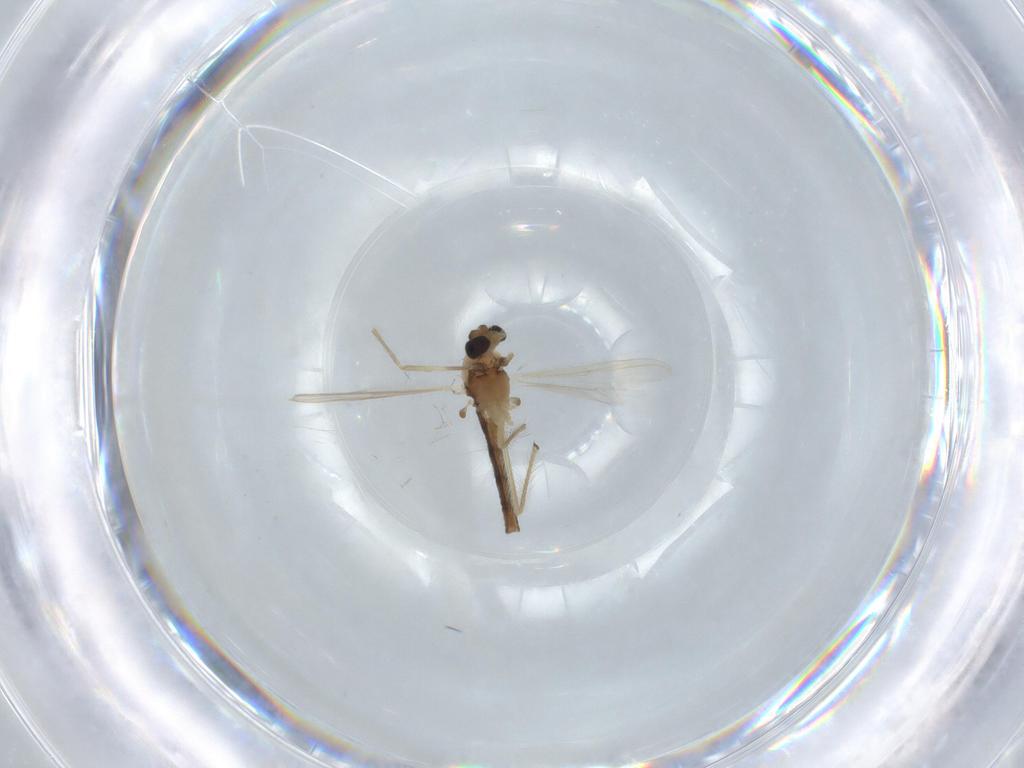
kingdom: Animalia
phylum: Arthropoda
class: Insecta
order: Diptera
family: Chironomidae
